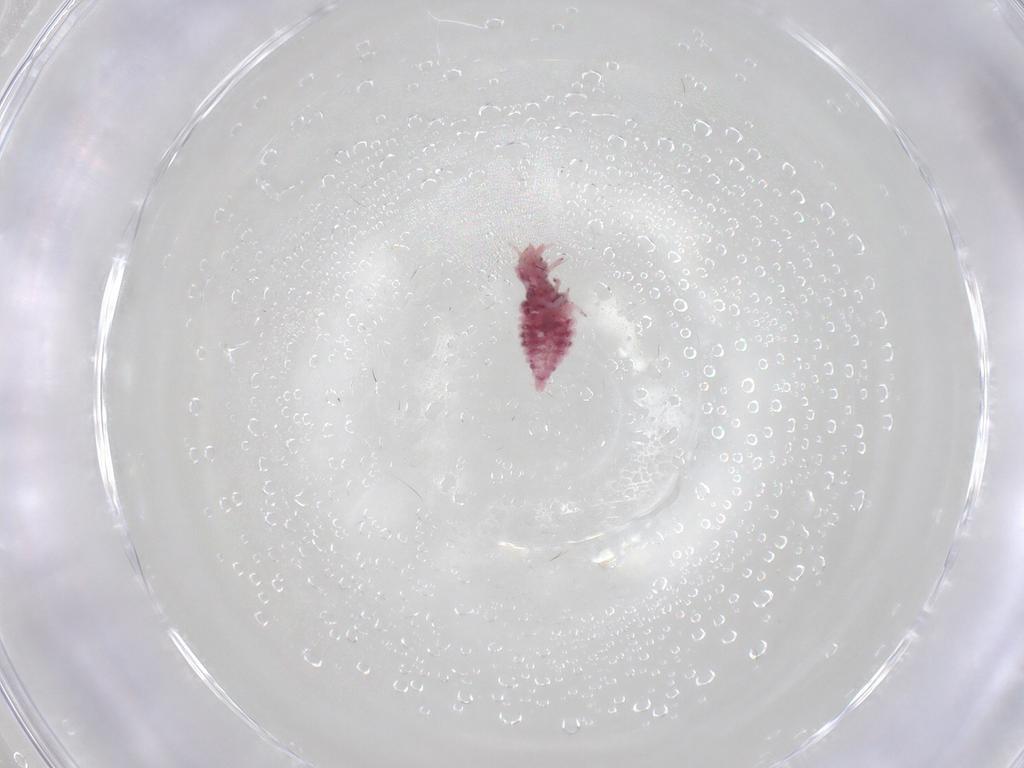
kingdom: Animalia
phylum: Arthropoda
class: Insecta
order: Neuroptera
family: Coniopterygidae
